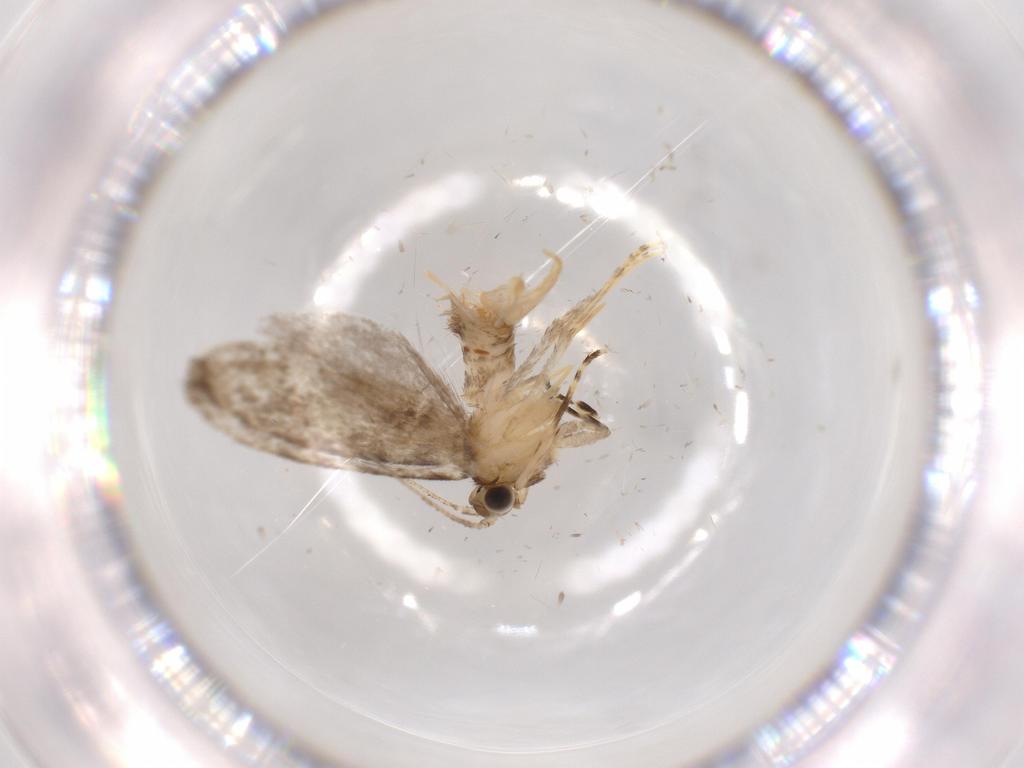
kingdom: Animalia
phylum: Arthropoda
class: Insecta
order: Lepidoptera
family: Tineidae
